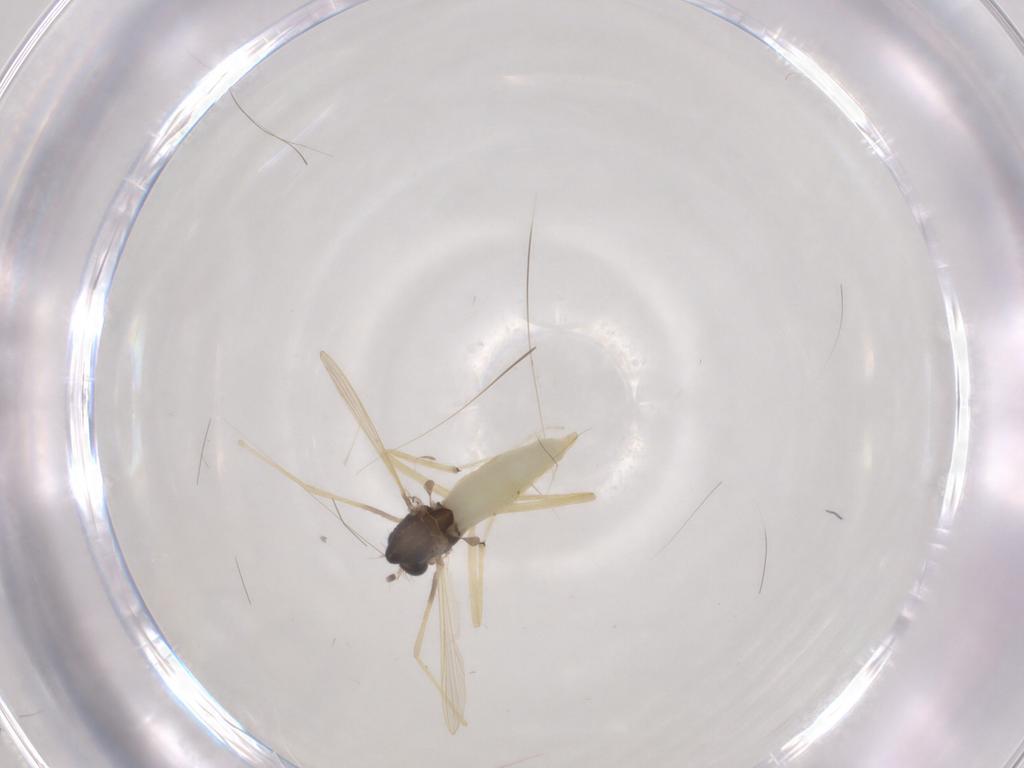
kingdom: Animalia
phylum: Arthropoda
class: Insecta
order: Diptera
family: Chironomidae
